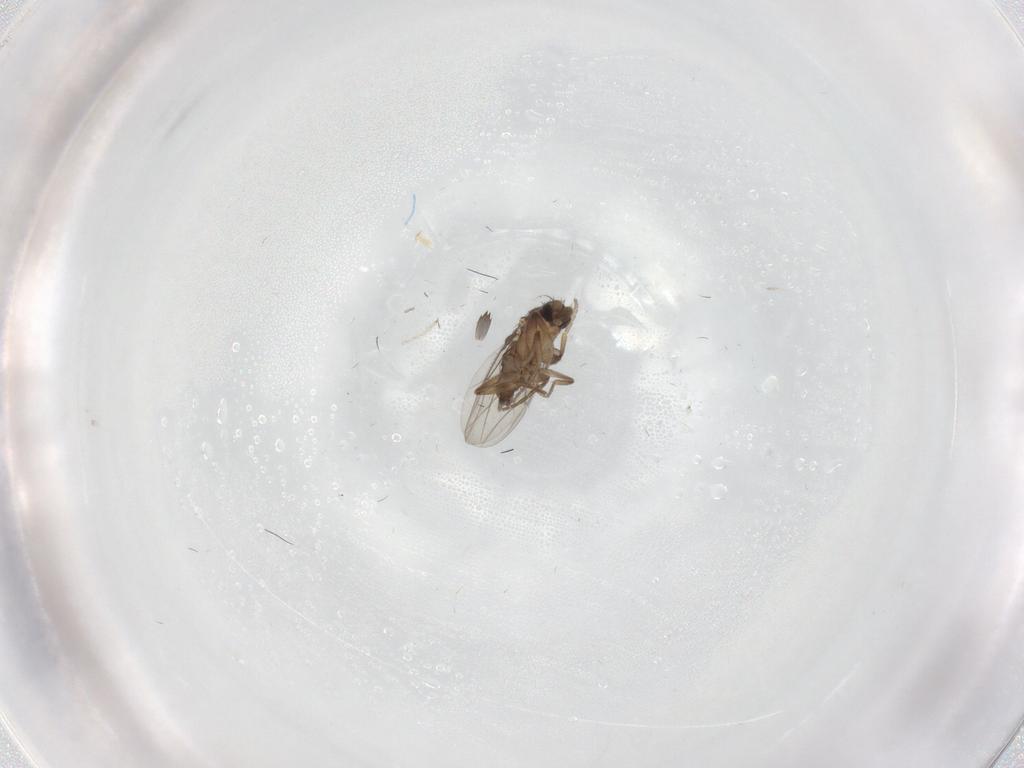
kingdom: Animalia
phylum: Arthropoda
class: Insecta
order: Diptera
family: Phoridae
